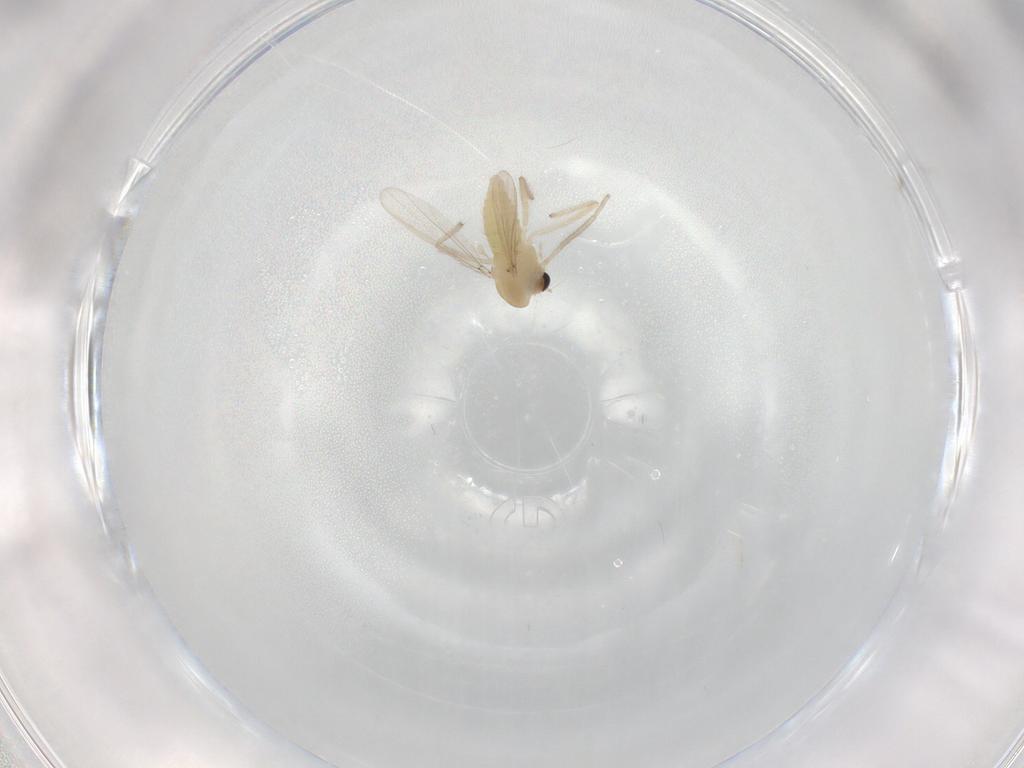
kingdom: Animalia
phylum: Arthropoda
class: Insecta
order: Diptera
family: Chironomidae
